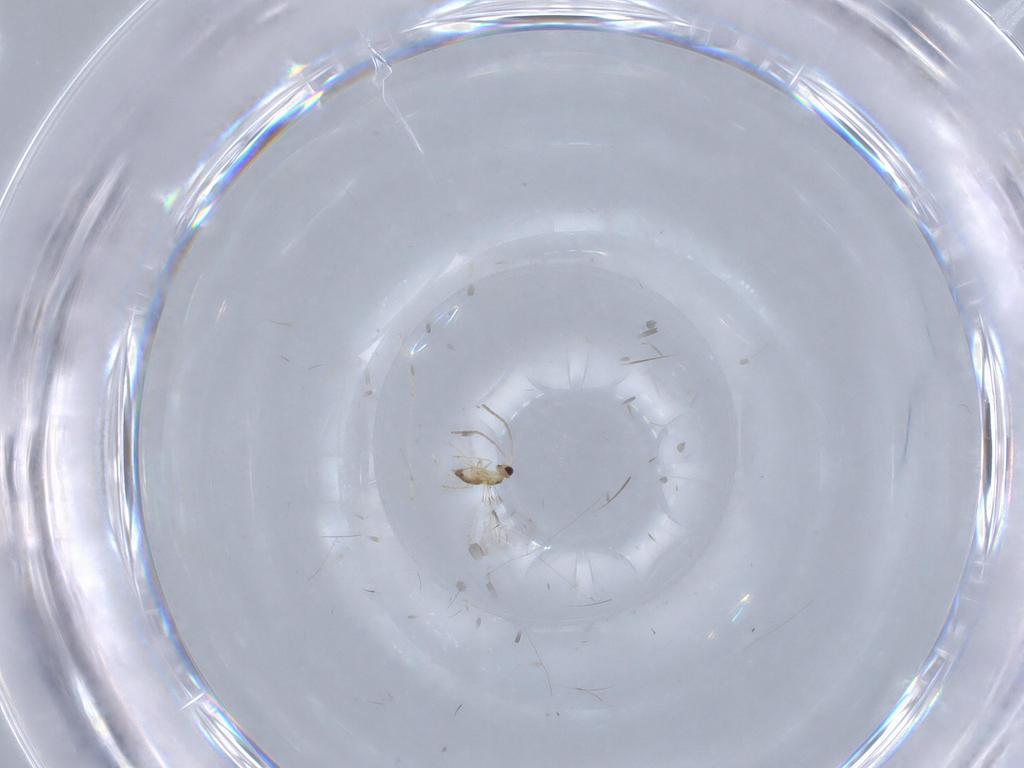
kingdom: Animalia
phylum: Arthropoda
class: Insecta
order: Hymenoptera
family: Mymaridae
